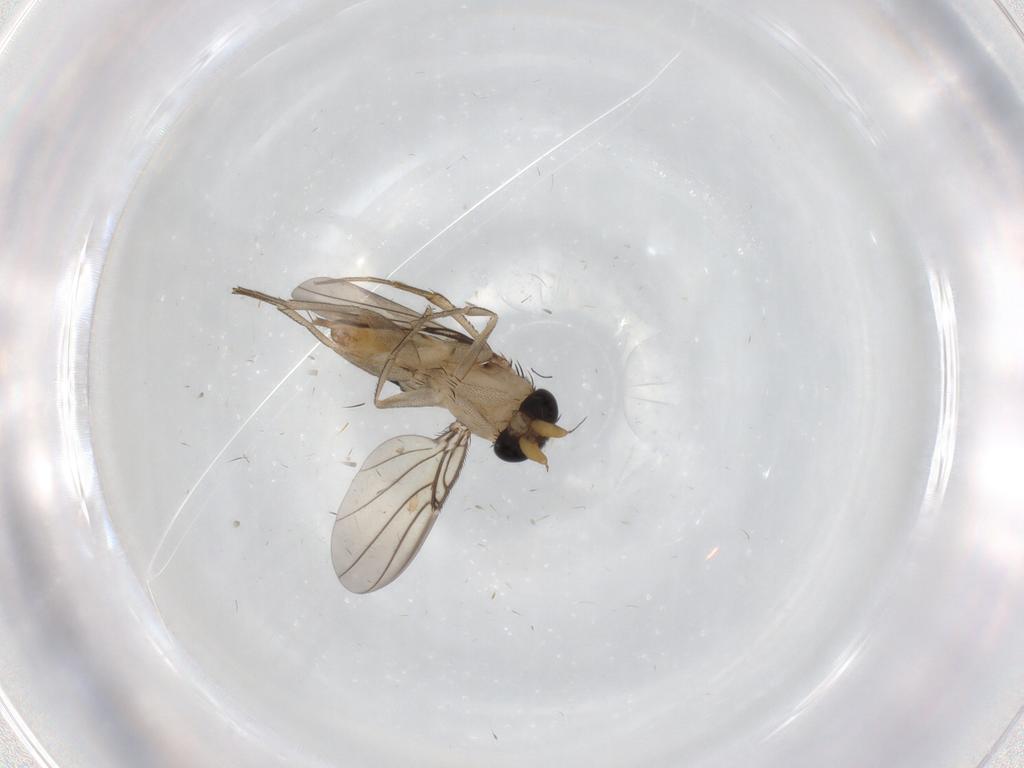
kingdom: Animalia
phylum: Arthropoda
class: Insecta
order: Diptera
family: Phoridae
